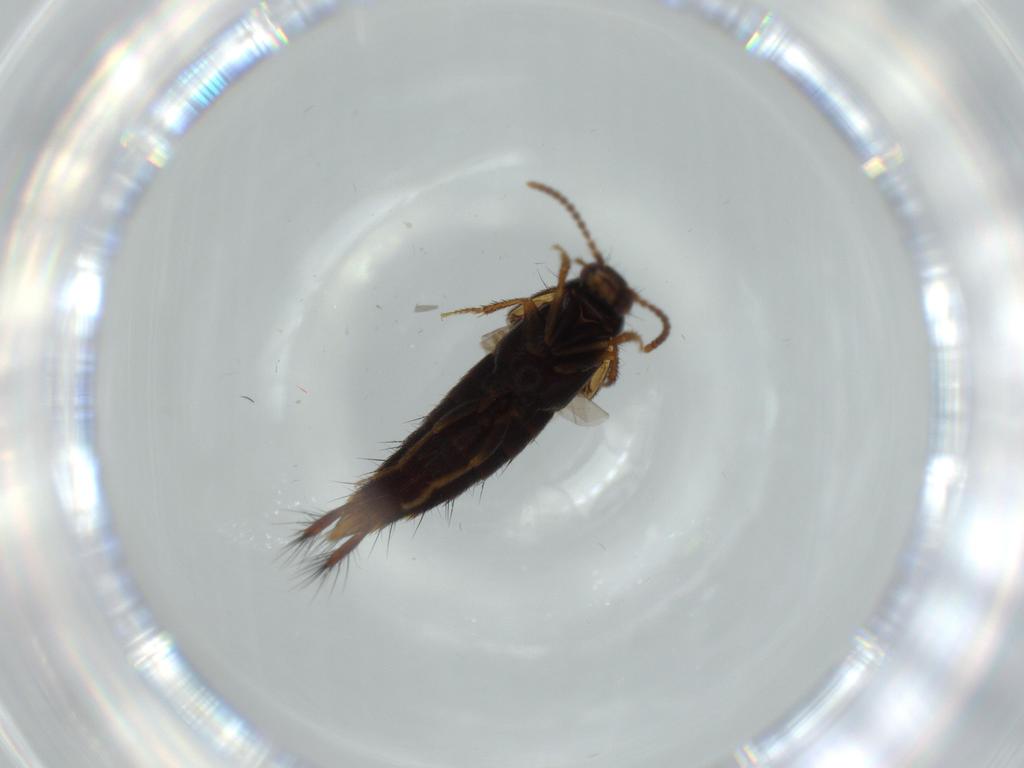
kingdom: Animalia
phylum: Arthropoda
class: Insecta
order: Coleoptera
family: Staphylinidae
